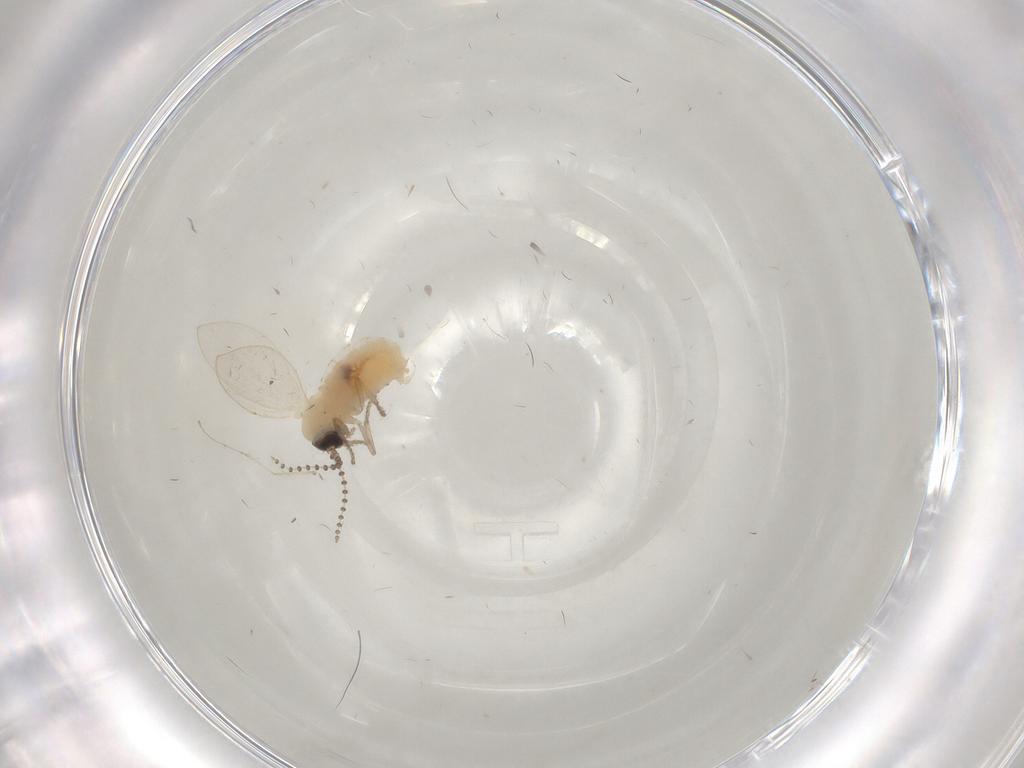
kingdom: Animalia
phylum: Arthropoda
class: Insecta
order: Diptera
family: Cecidomyiidae
